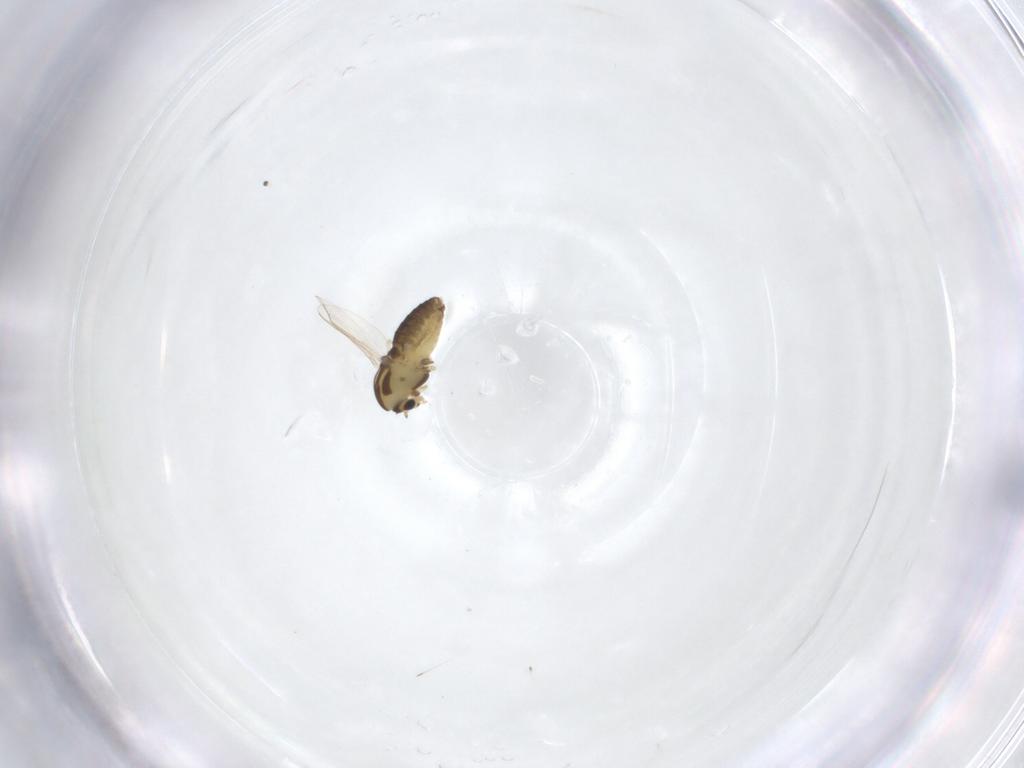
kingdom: Animalia
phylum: Arthropoda
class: Insecta
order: Diptera
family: Chironomidae
